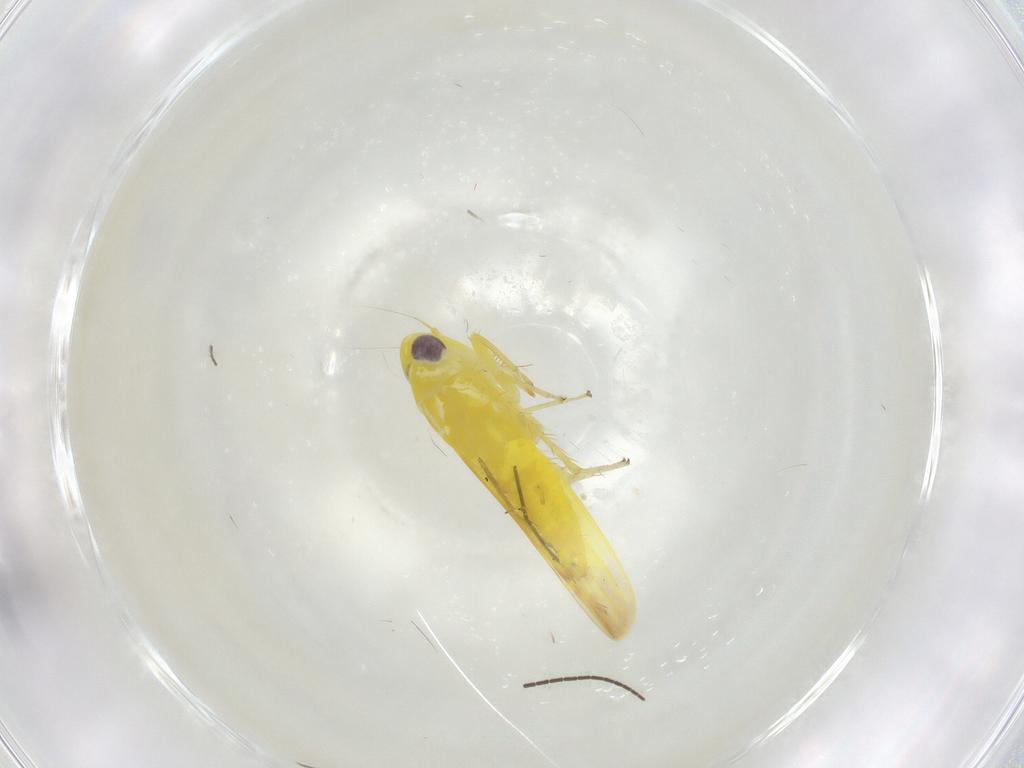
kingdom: Animalia
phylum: Arthropoda
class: Insecta
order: Hemiptera
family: Cicadellidae
